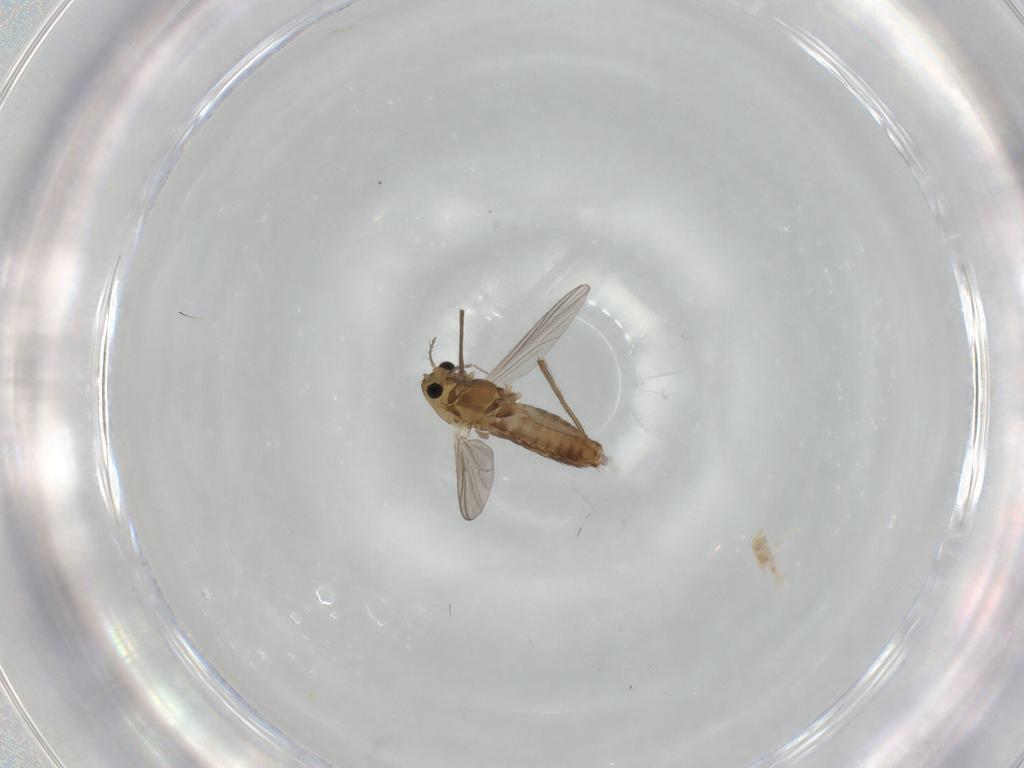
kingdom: Animalia
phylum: Arthropoda
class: Insecta
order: Diptera
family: Chironomidae
